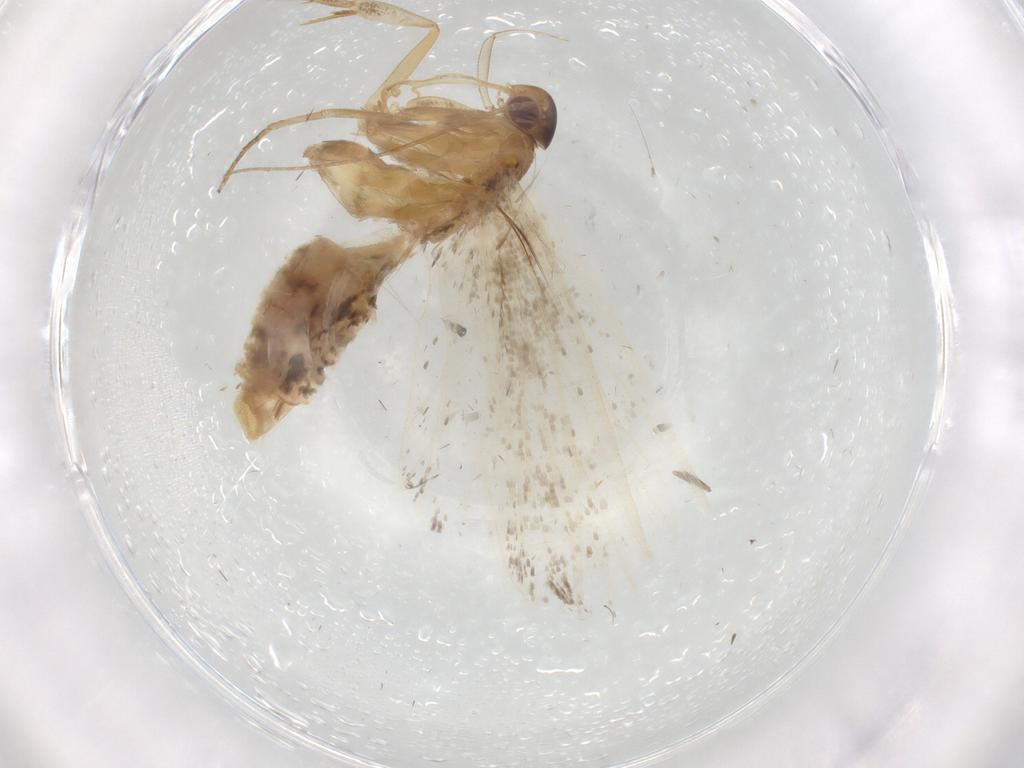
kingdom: Animalia
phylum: Arthropoda
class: Insecta
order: Lepidoptera
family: Gelechiidae
